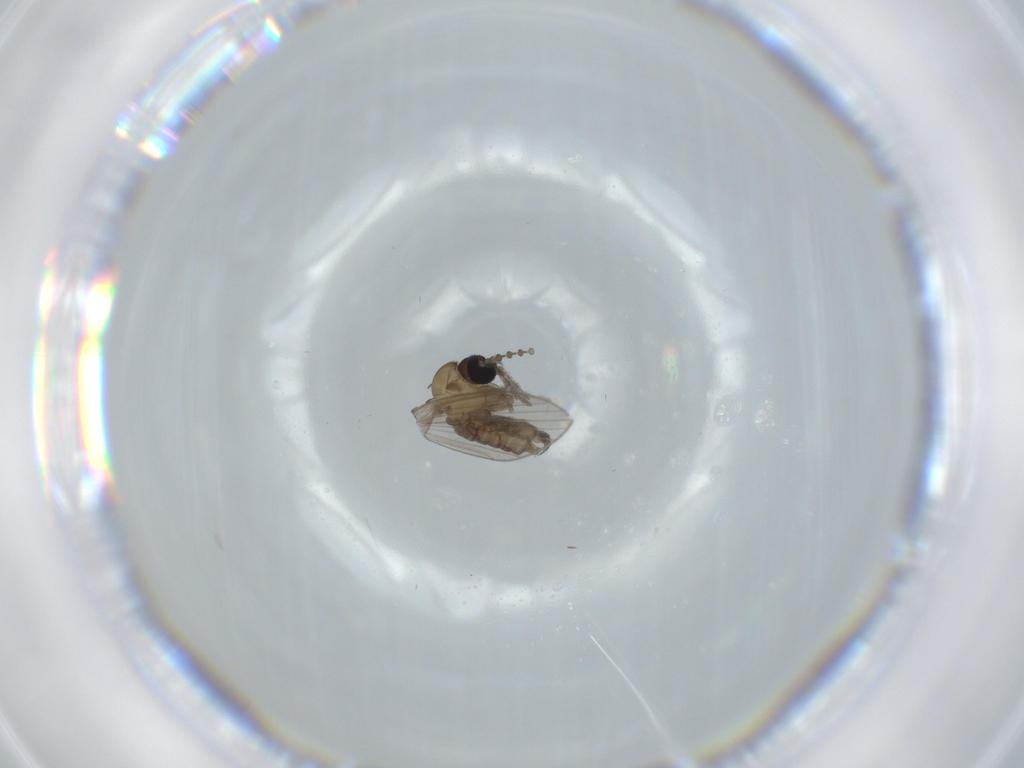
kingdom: Animalia
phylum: Arthropoda
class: Insecta
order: Diptera
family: Psychodidae
